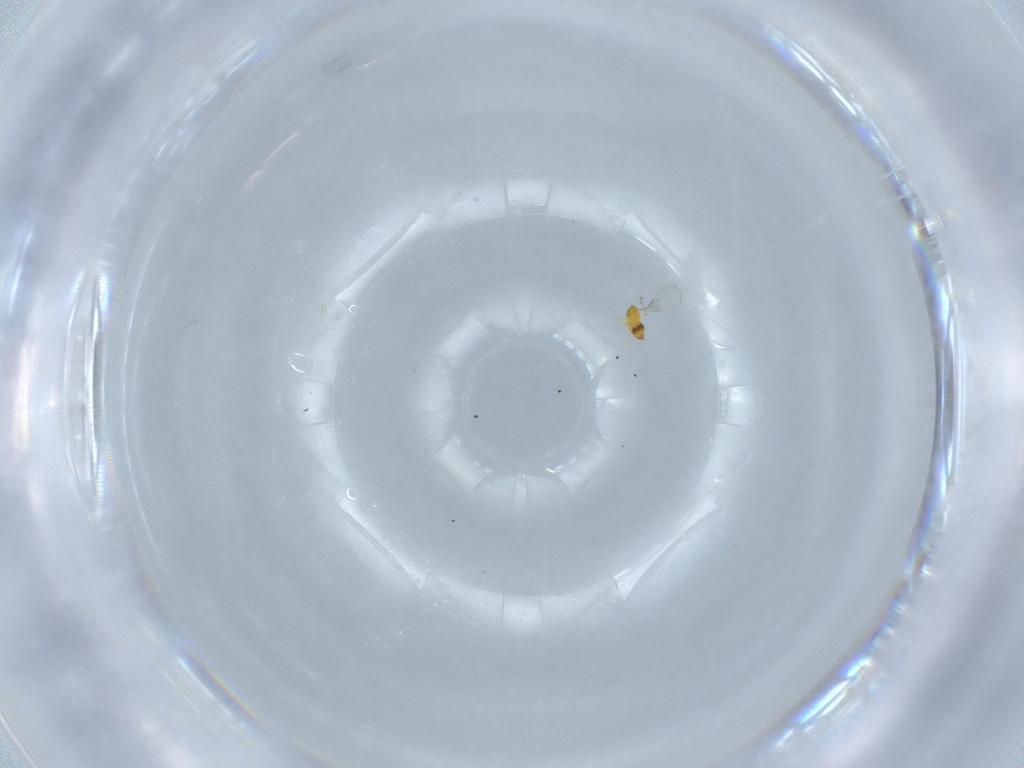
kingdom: Animalia
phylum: Arthropoda
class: Insecta
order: Hymenoptera
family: Trichogrammatidae
